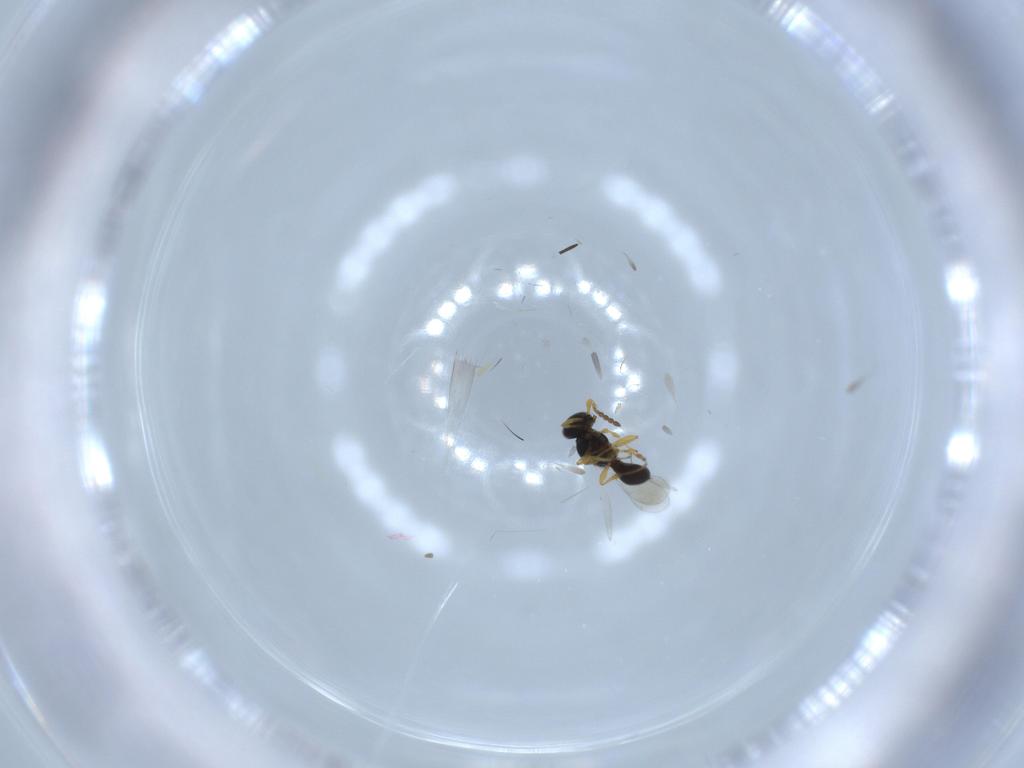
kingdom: Animalia
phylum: Arthropoda
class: Insecta
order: Hymenoptera
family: Platygastridae
